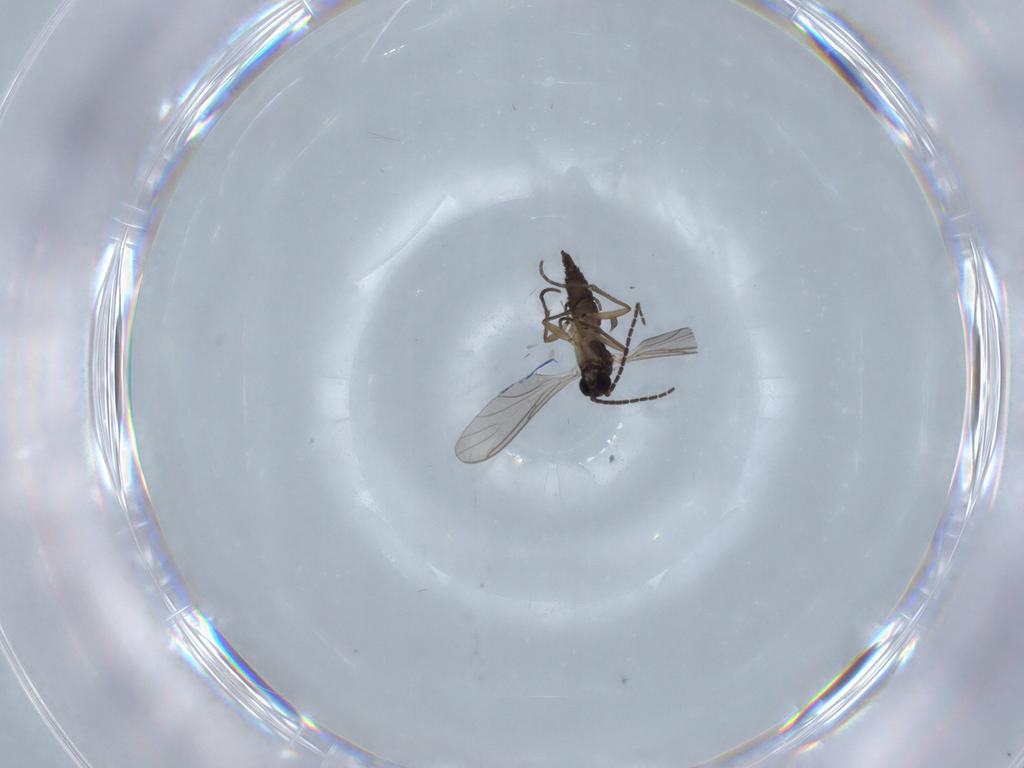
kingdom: Animalia
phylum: Arthropoda
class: Insecta
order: Diptera
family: Sciaridae
